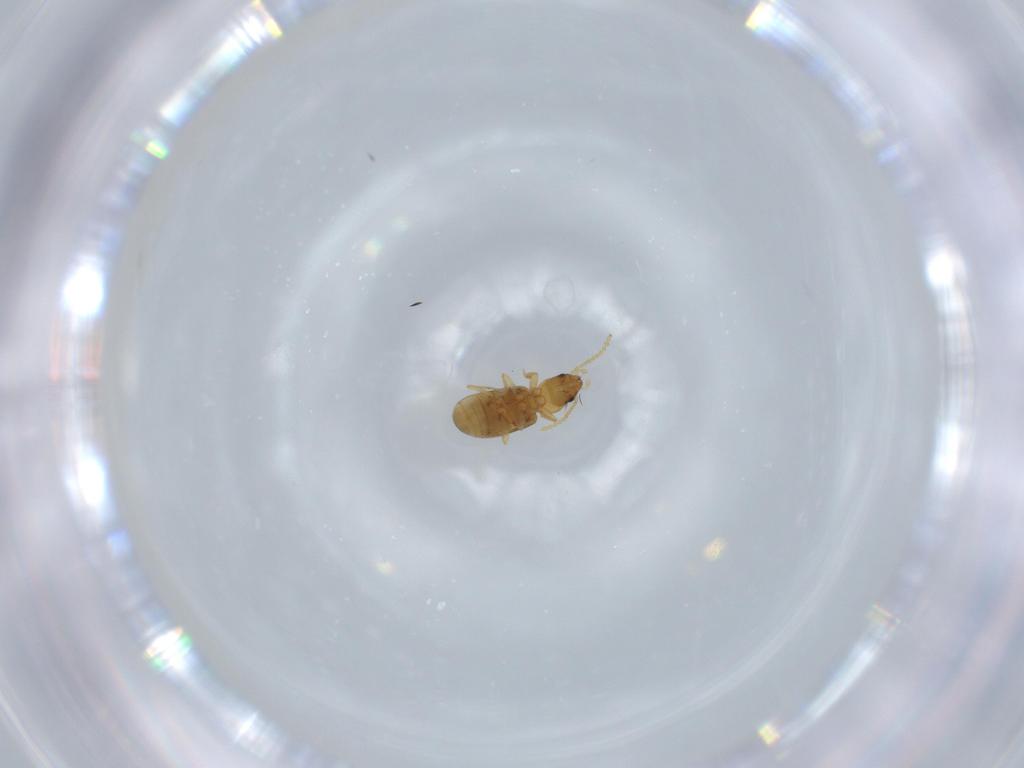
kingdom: Animalia
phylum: Arthropoda
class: Insecta
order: Coleoptera
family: Carabidae
